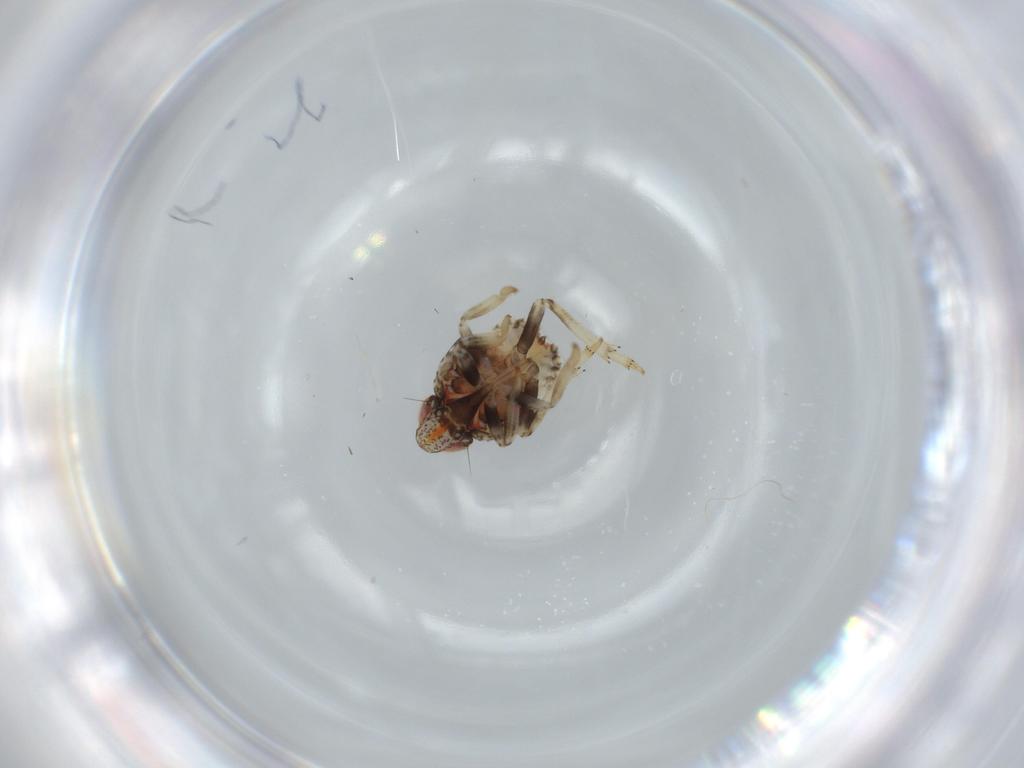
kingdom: Animalia
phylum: Arthropoda
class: Insecta
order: Hemiptera
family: Issidae
